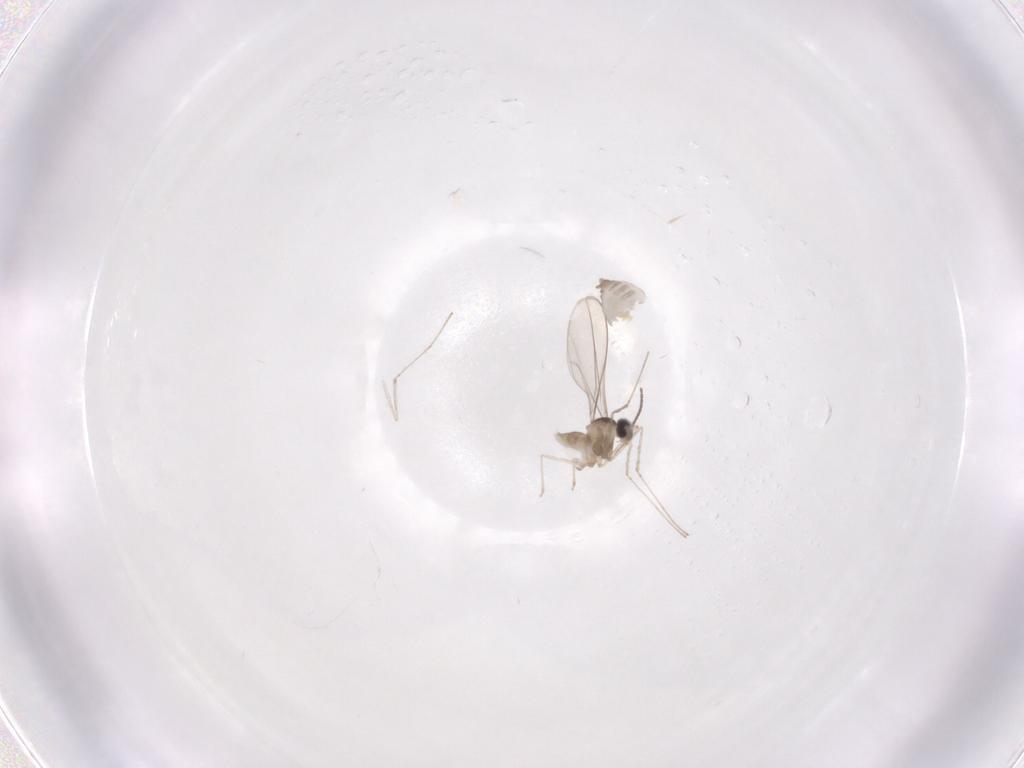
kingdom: Animalia
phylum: Arthropoda
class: Insecta
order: Diptera
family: Cecidomyiidae
